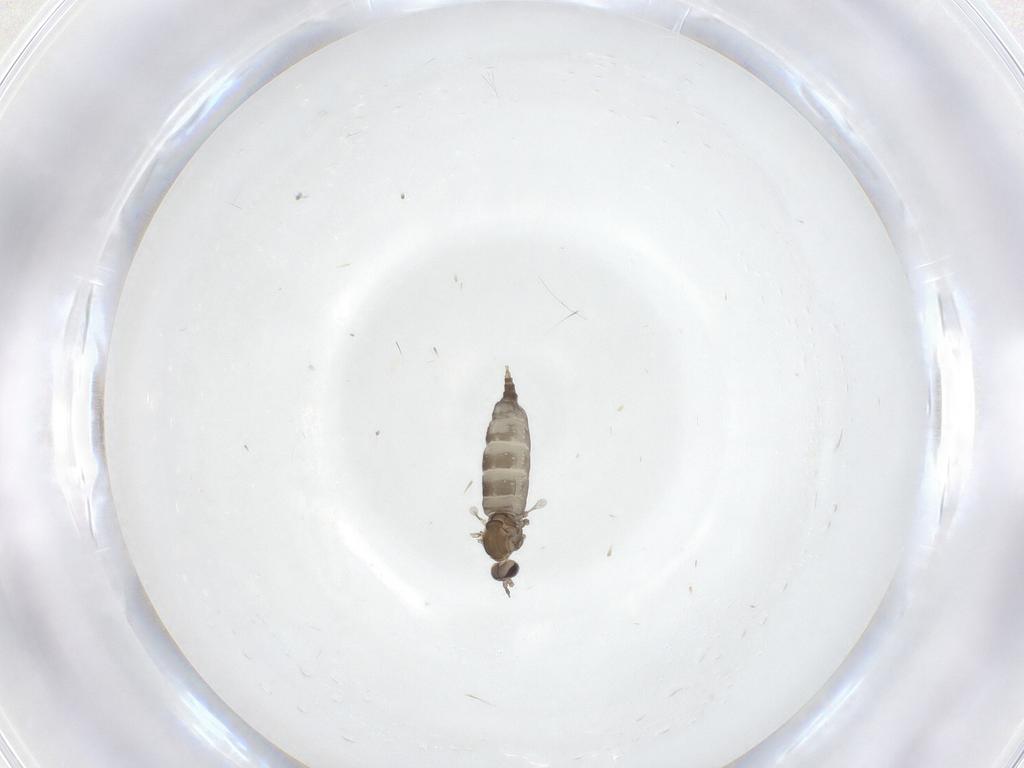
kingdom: Animalia
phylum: Arthropoda
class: Insecta
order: Diptera
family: Cecidomyiidae
